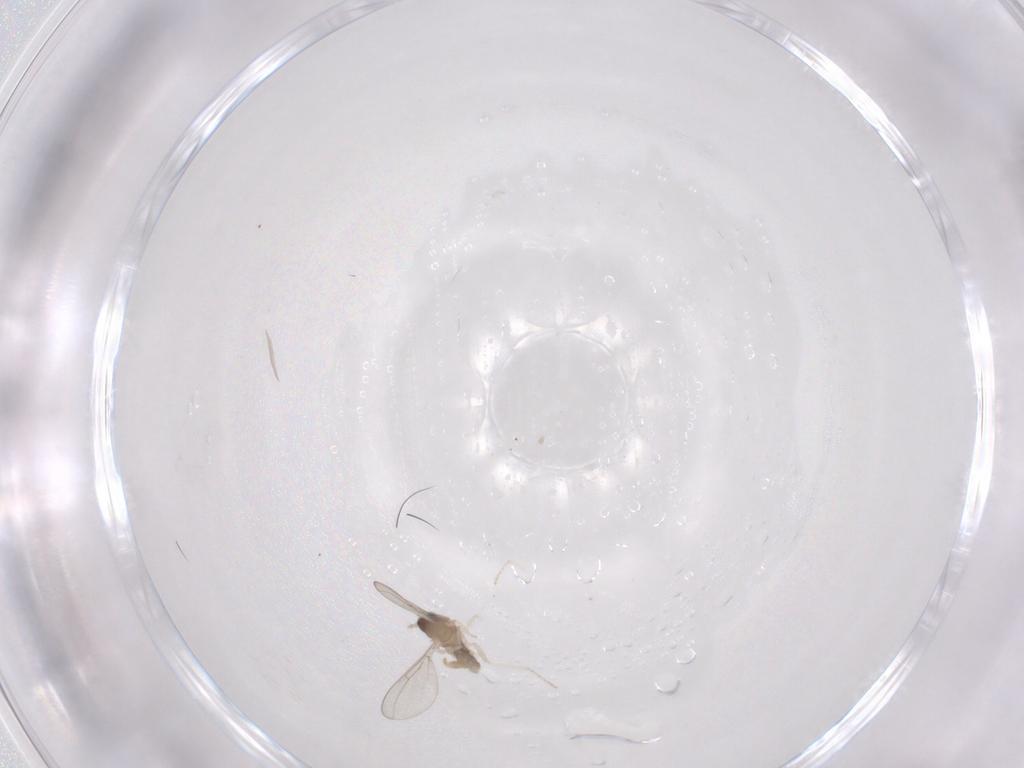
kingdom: Animalia
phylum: Arthropoda
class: Insecta
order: Diptera
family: Cecidomyiidae
